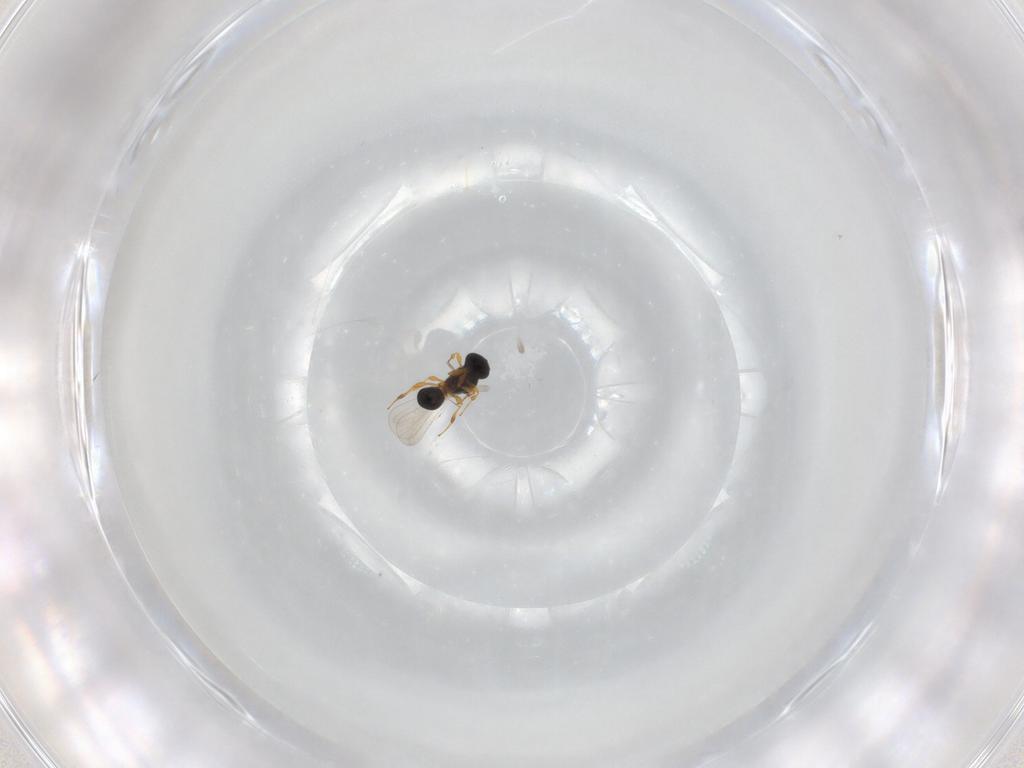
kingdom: Animalia
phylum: Arthropoda
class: Insecta
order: Hymenoptera
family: Platygastridae
